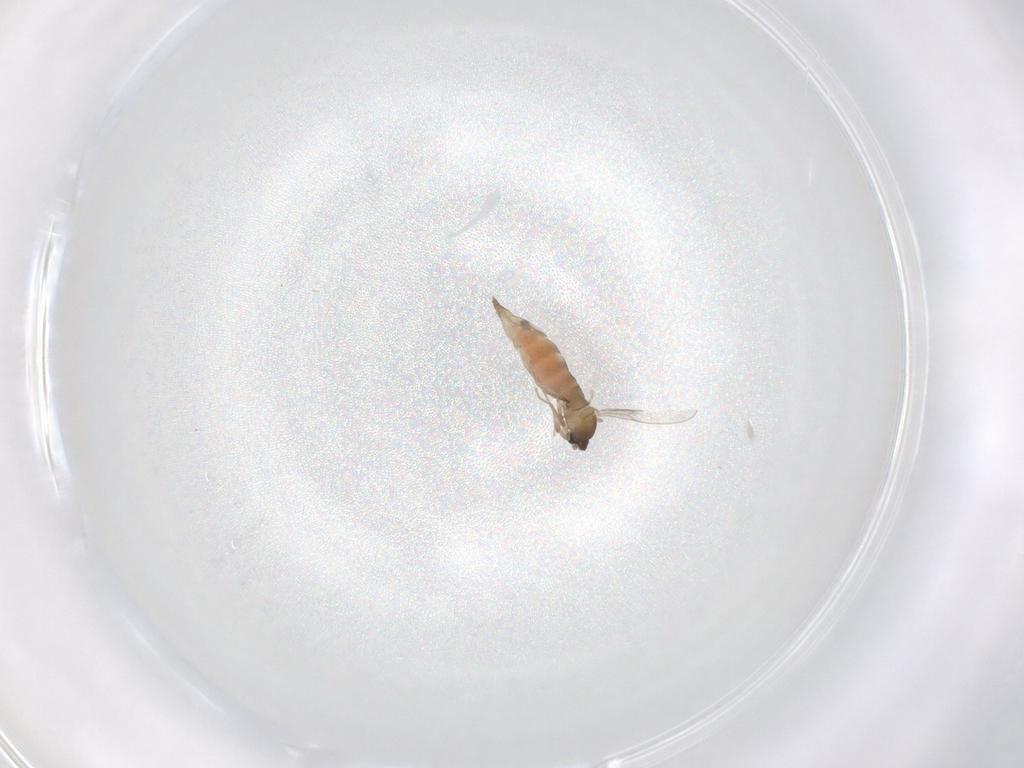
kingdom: Animalia
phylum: Arthropoda
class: Insecta
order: Diptera
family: Cecidomyiidae
